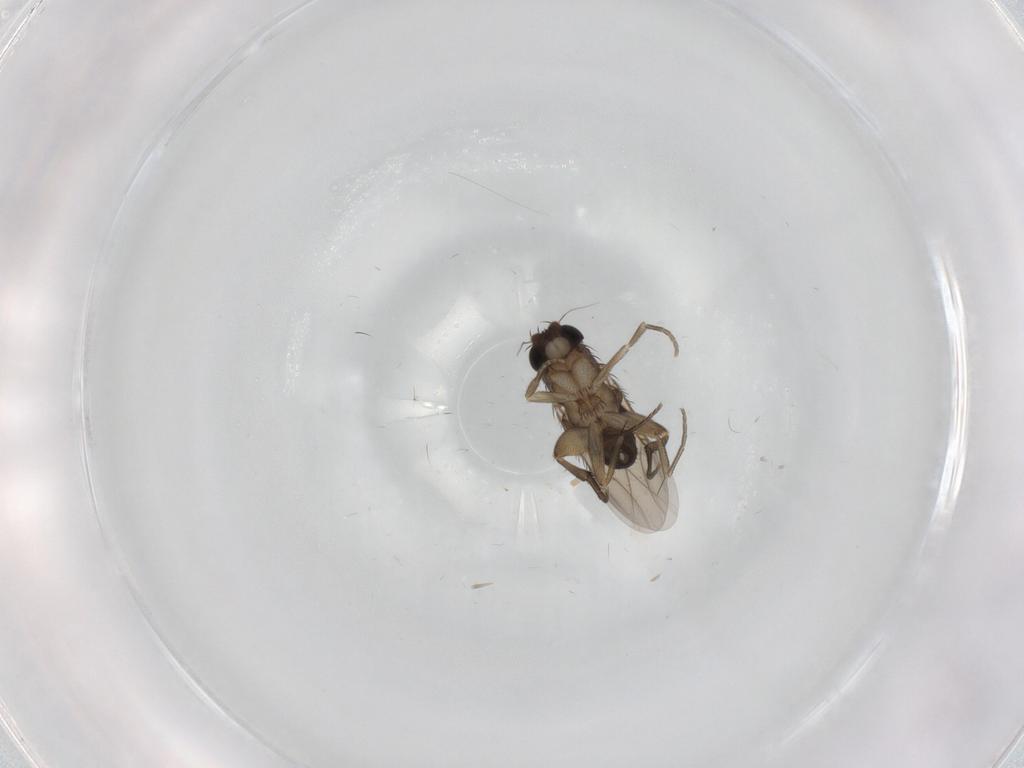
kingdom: Animalia
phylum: Arthropoda
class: Insecta
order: Diptera
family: Phoridae
